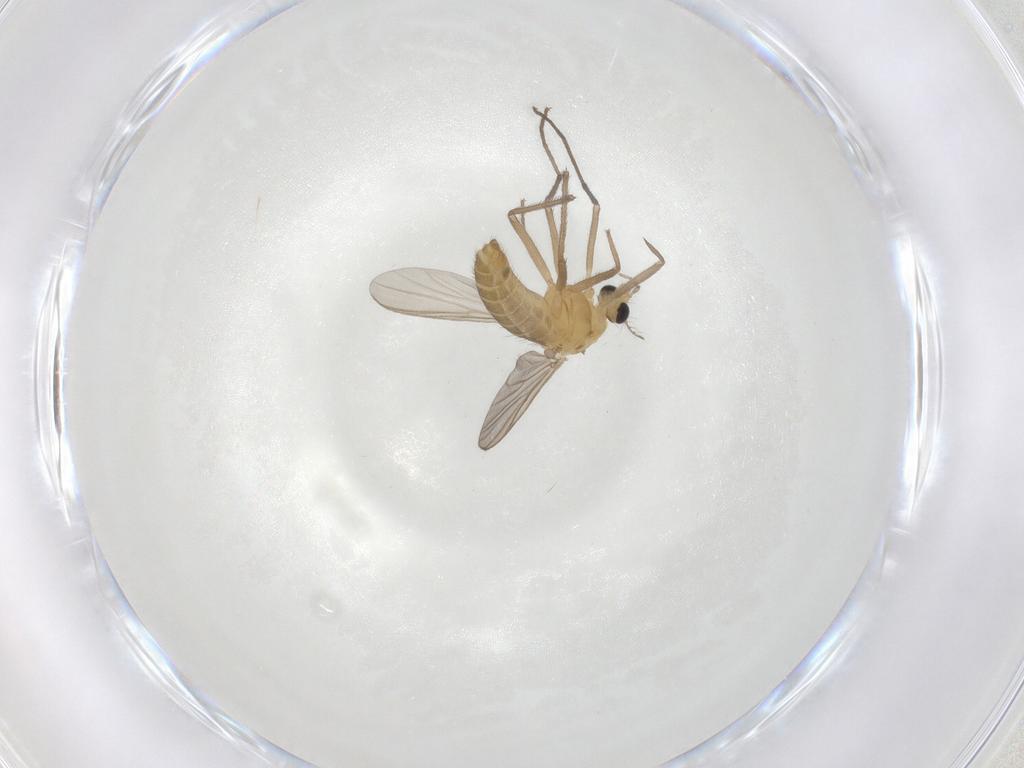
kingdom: Animalia
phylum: Arthropoda
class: Insecta
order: Diptera
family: Chironomidae
